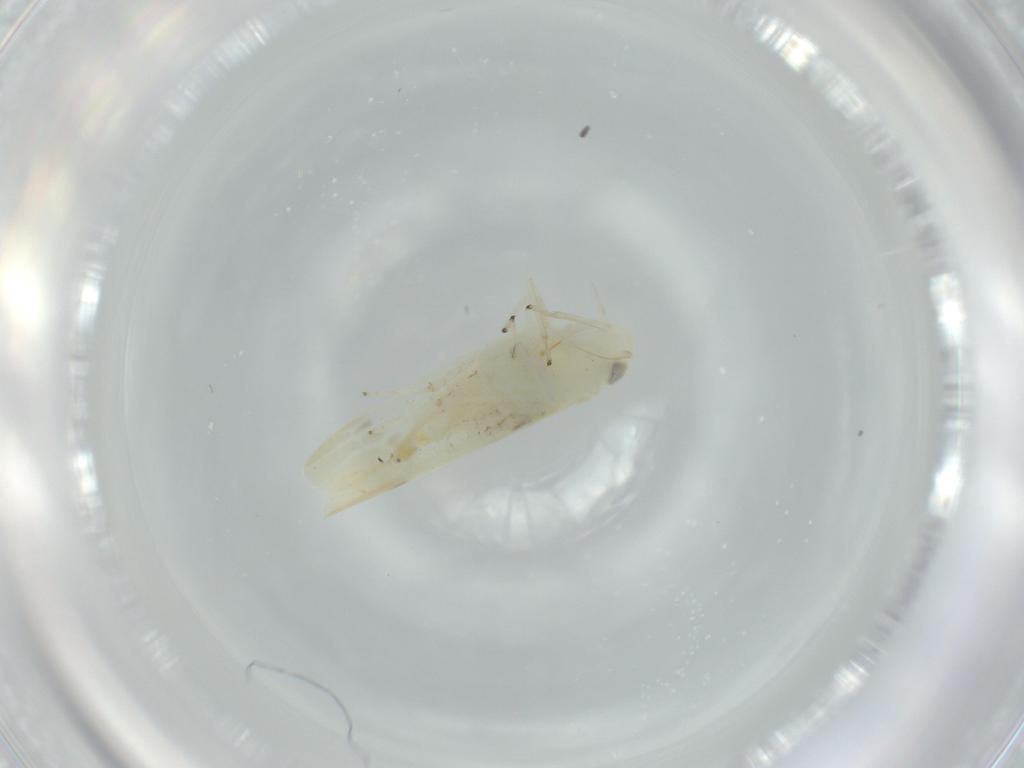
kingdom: Animalia
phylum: Arthropoda
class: Insecta
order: Hemiptera
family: Cicadellidae
